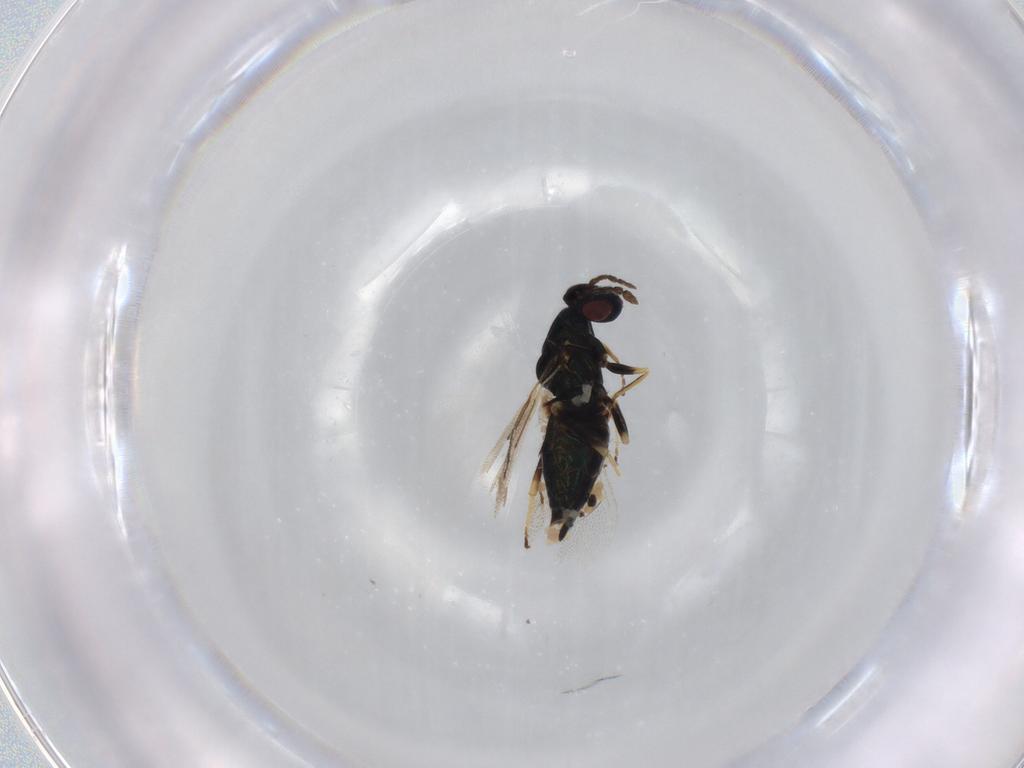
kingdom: Animalia
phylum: Arthropoda
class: Insecta
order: Hymenoptera
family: Eulophidae
